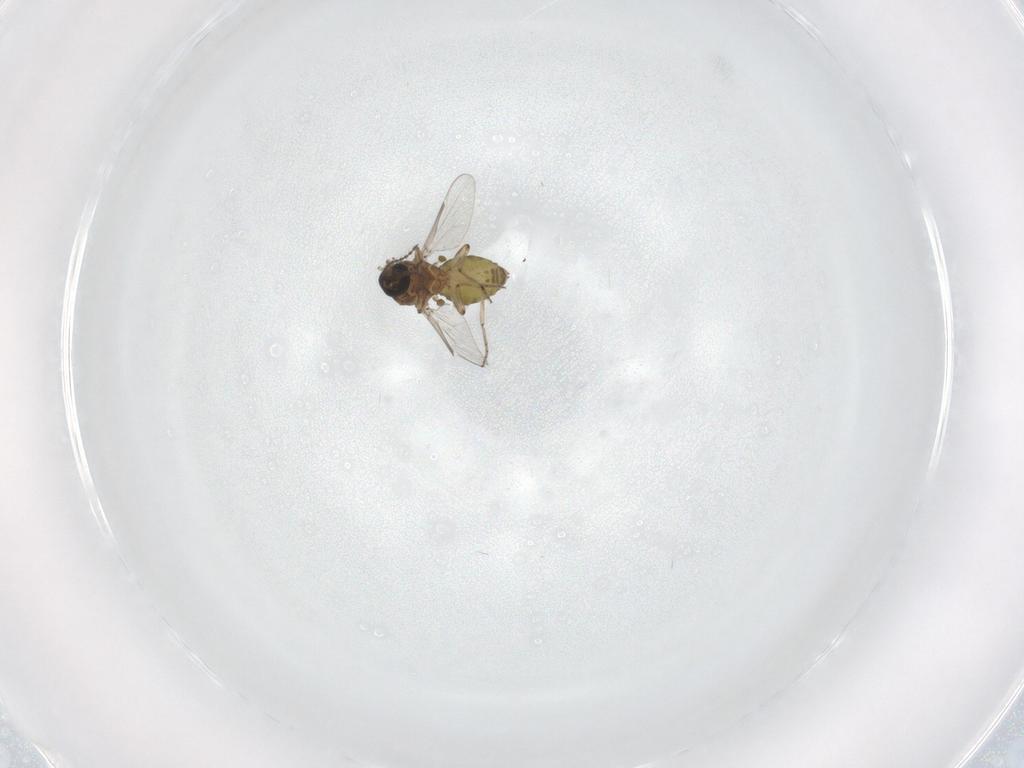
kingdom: Animalia
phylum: Arthropoda
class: Insecta
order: Diptera
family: Ceratopogonidae
